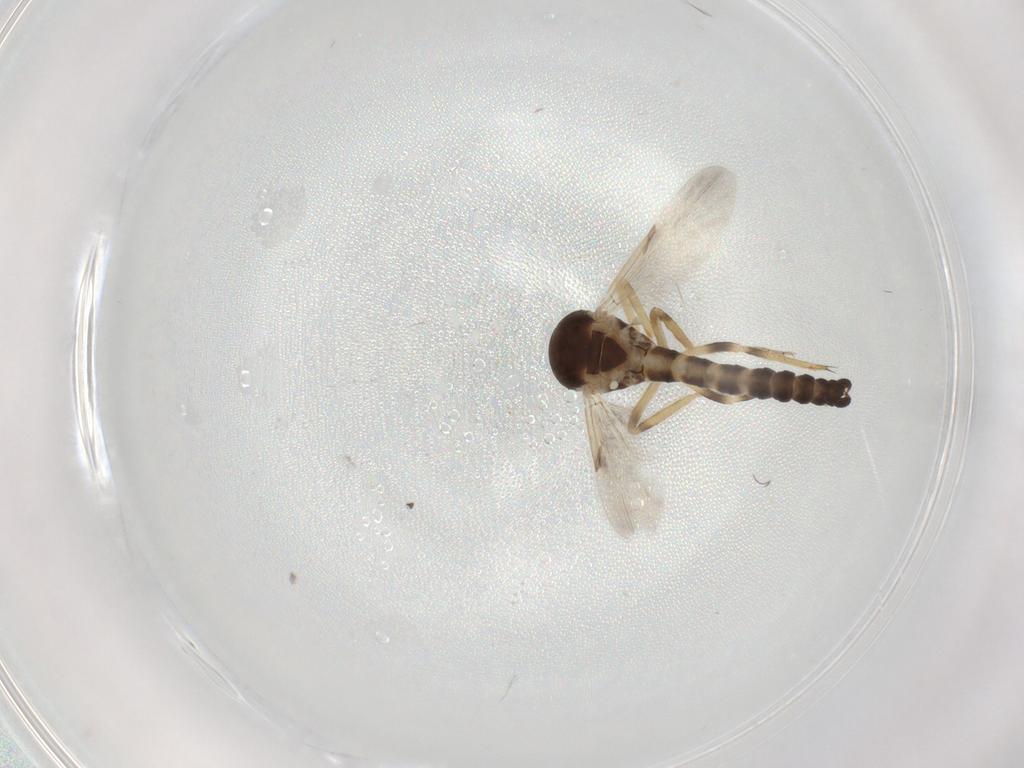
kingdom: Animalia
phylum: Arthropoda
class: Insecta
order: Diptera
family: Ceratopogonidae
